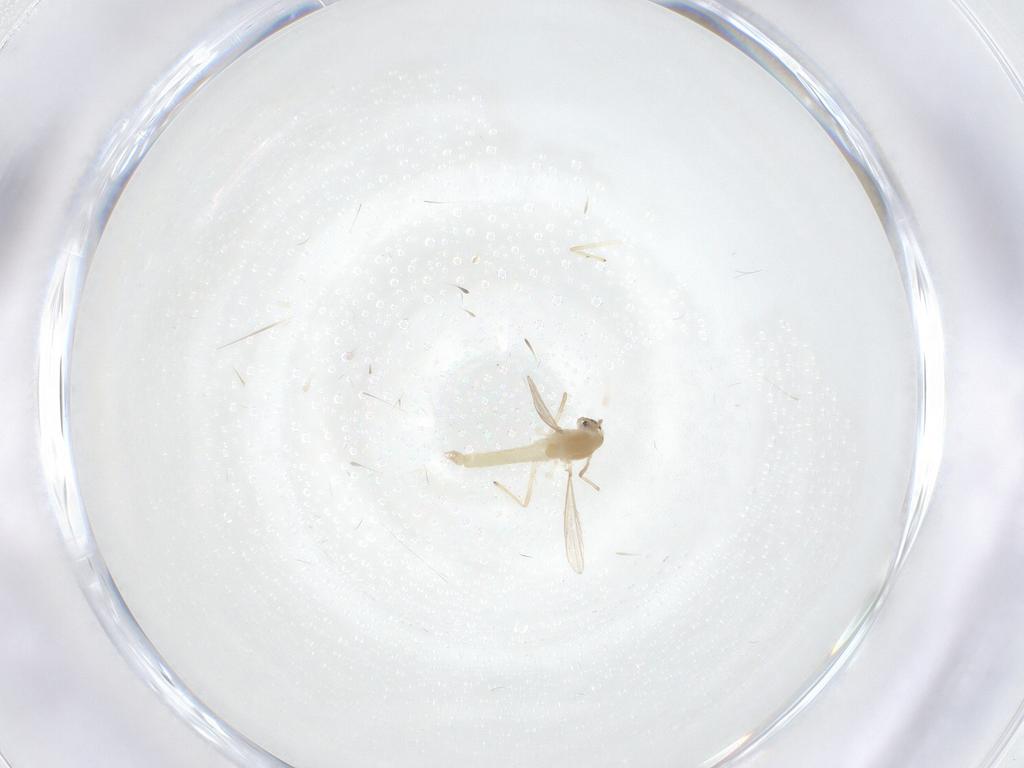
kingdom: Animalia
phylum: Arthropoda
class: Insecta
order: Diptera
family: Chironomidae
